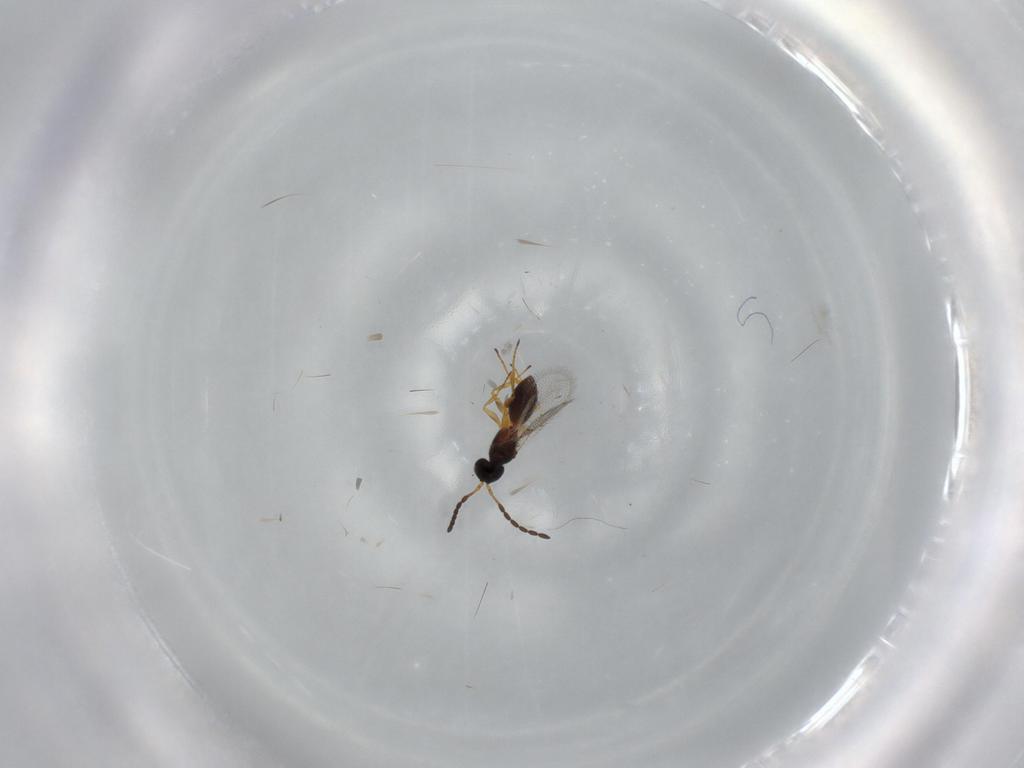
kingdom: Animalia
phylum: Arthropoda
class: Insecta
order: Hymenoptera
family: Figitidae
